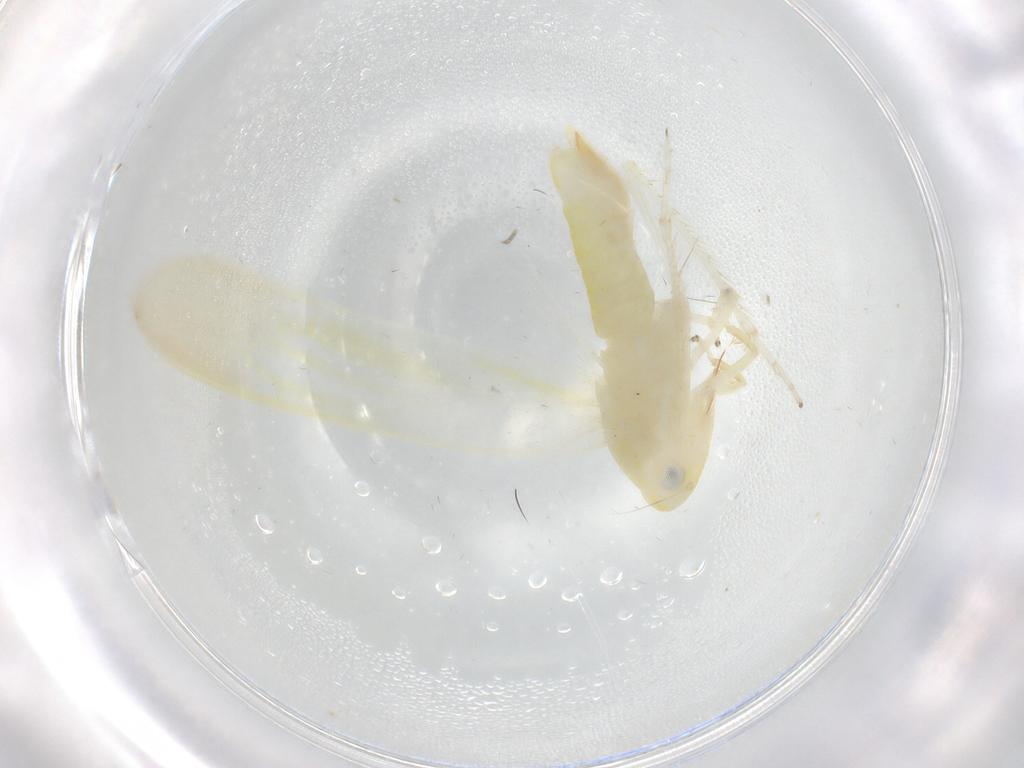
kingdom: Animalia
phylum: Arthropoda
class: Insecta
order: Hemiptera
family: Cicadellidae
